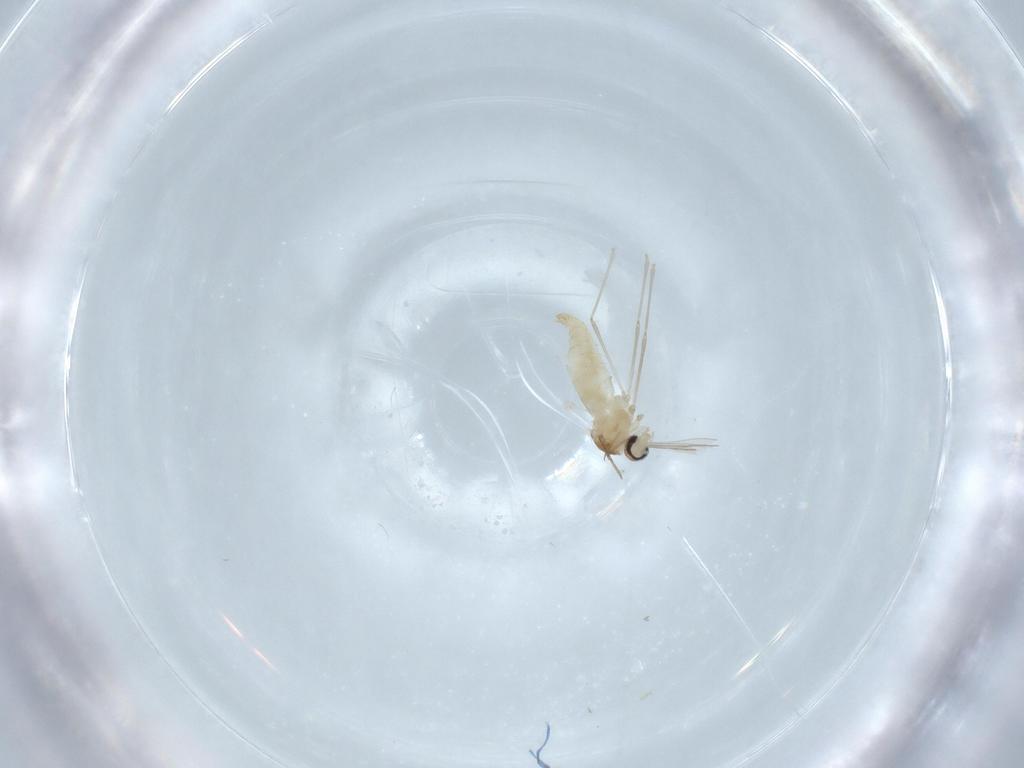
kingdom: Animalia
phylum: Arthropoda
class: Insecta
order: Diptera
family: Cecidomyiidae
